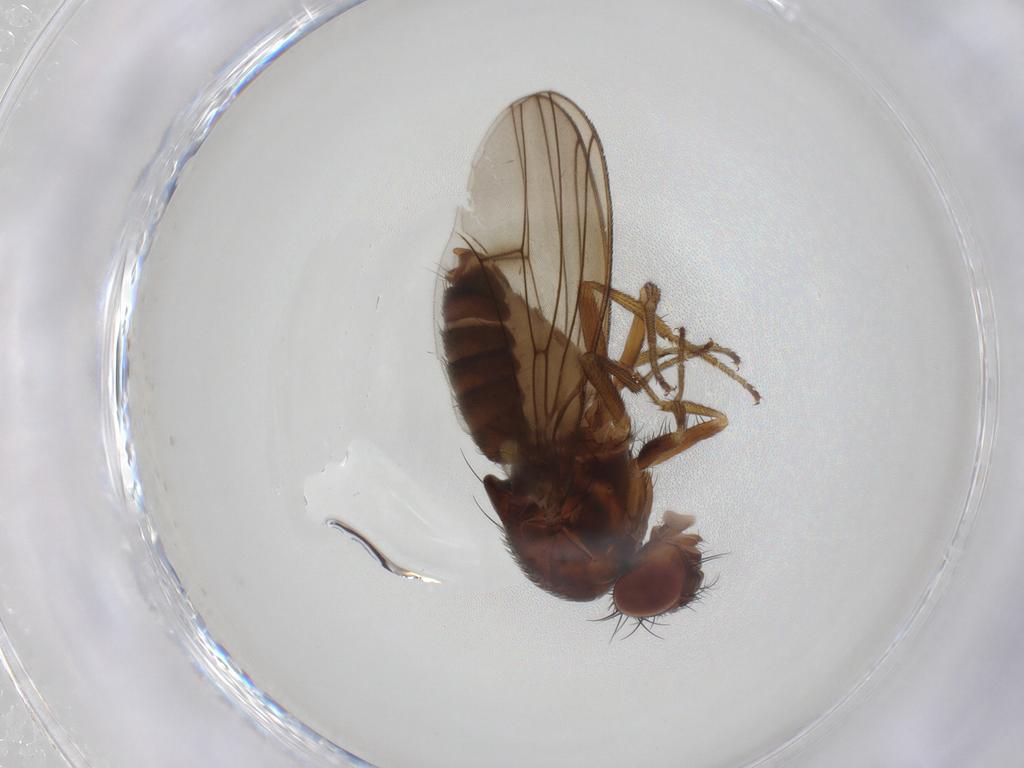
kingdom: Animalia
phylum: Arthropoda
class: Insecta
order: Diptera
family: Drosophilidae
